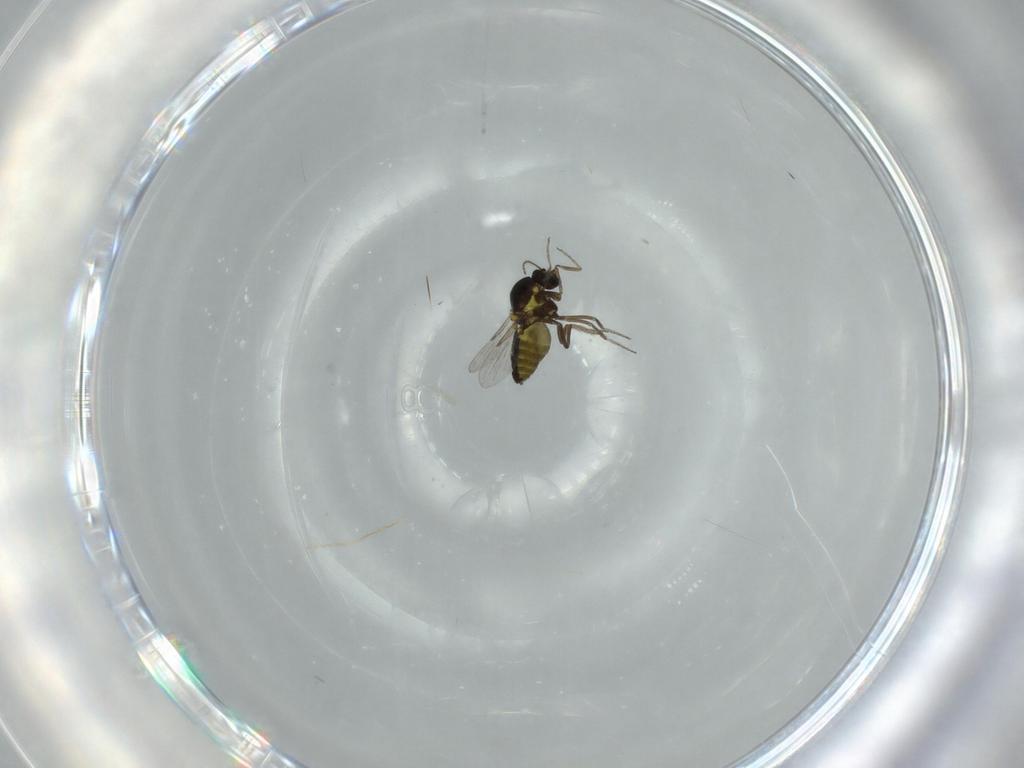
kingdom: Animalia
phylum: Arthropoda
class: Insecta
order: Diptera
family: Ceratopogonidae
